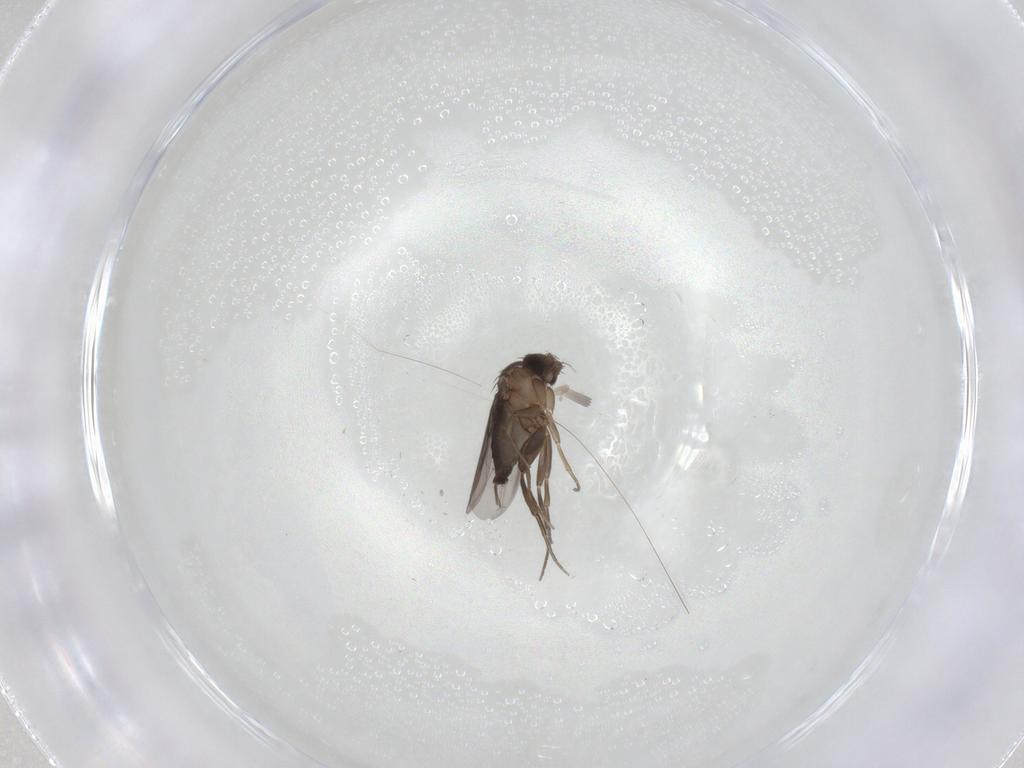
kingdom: Animalia
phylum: Arthropoda
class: Insecta
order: Diptera
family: Phoridae
